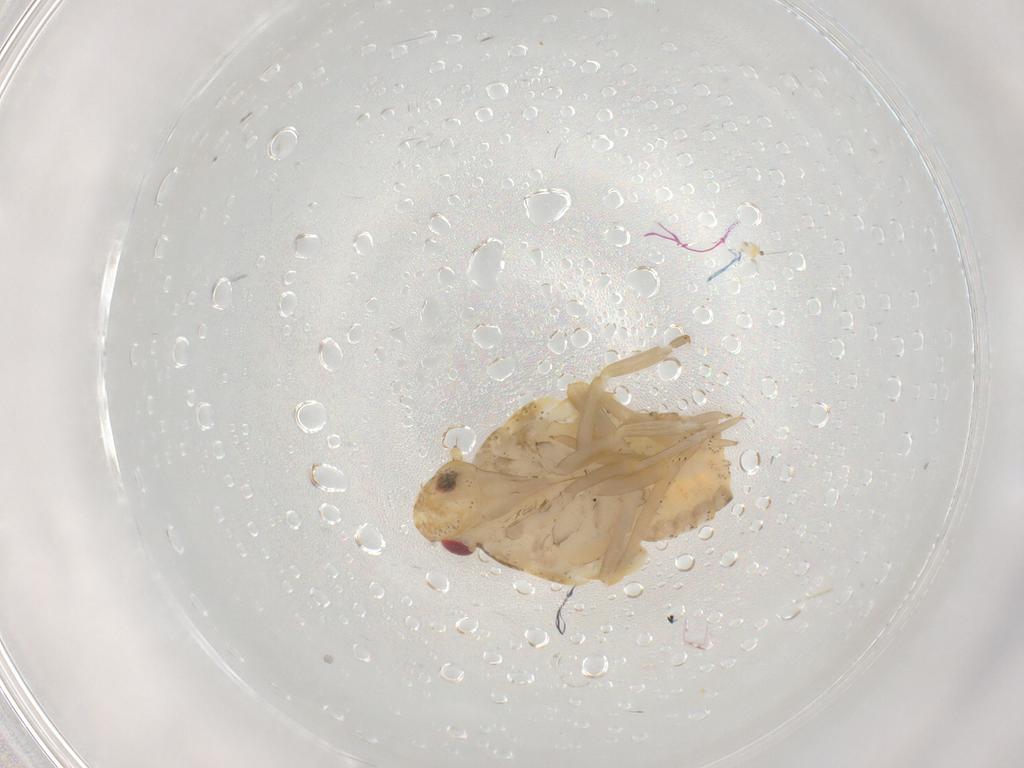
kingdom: Animalia
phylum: Arthropoda
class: Insecta
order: Hemiptera
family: Flatidae
